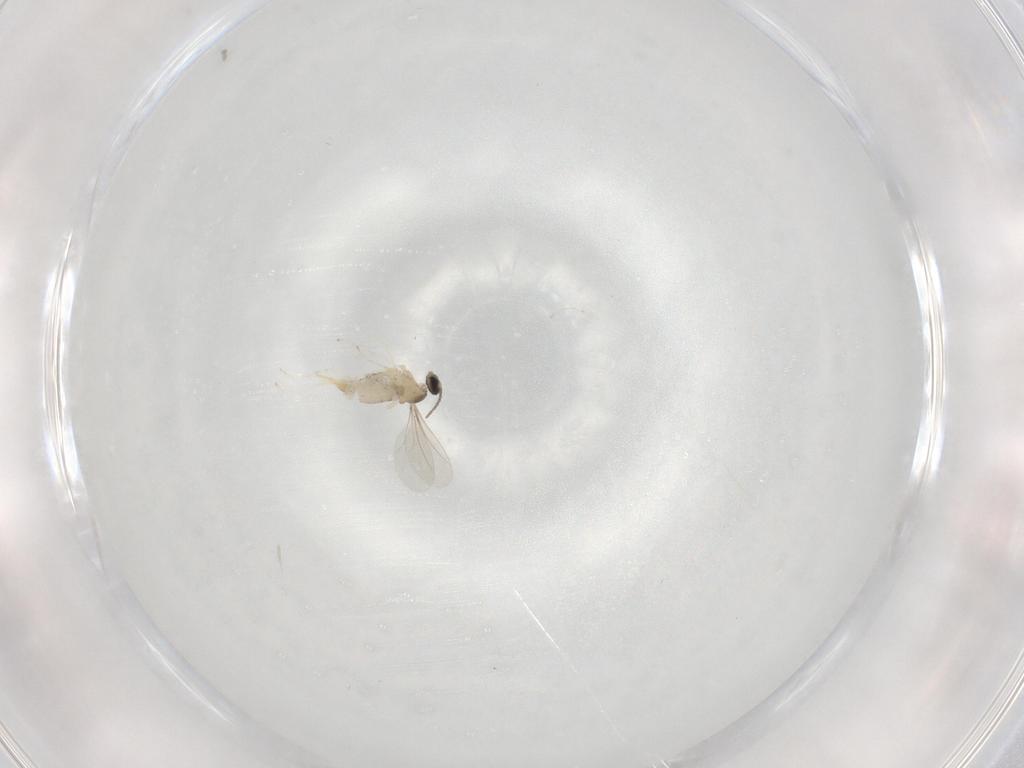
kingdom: Animalia
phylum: Arthropoda
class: Insecta
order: Diptera
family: Cecidomyiidae
